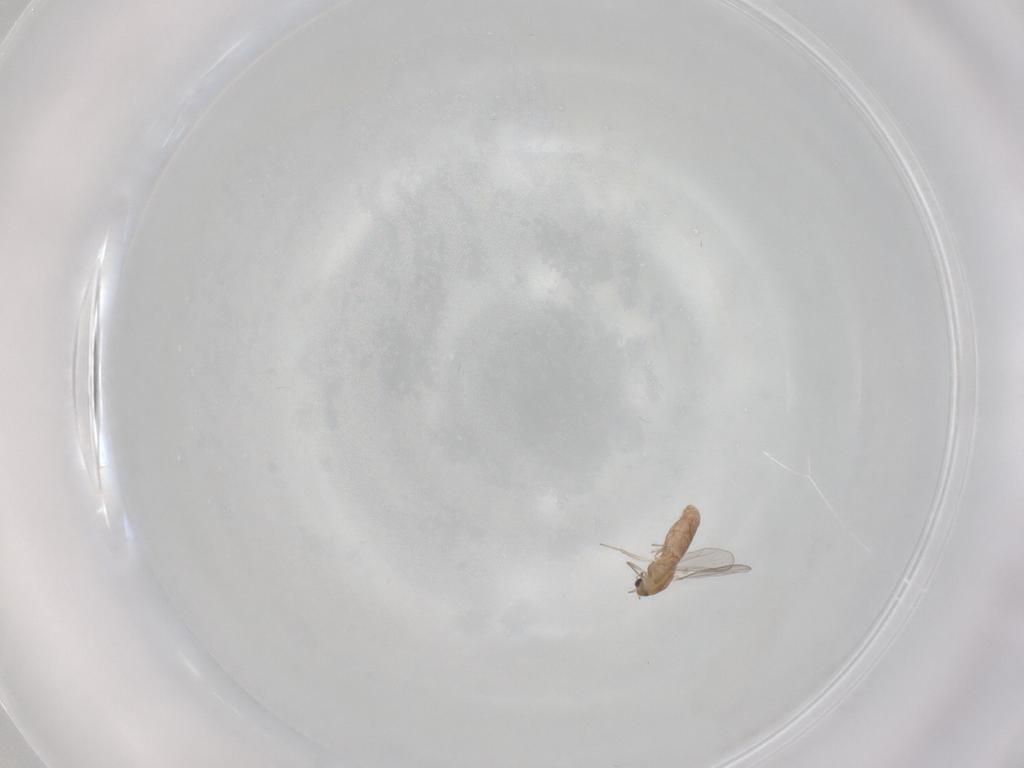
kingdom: Animalia
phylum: Arthropoda
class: Insecta
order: Diptera
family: Chironomidae
